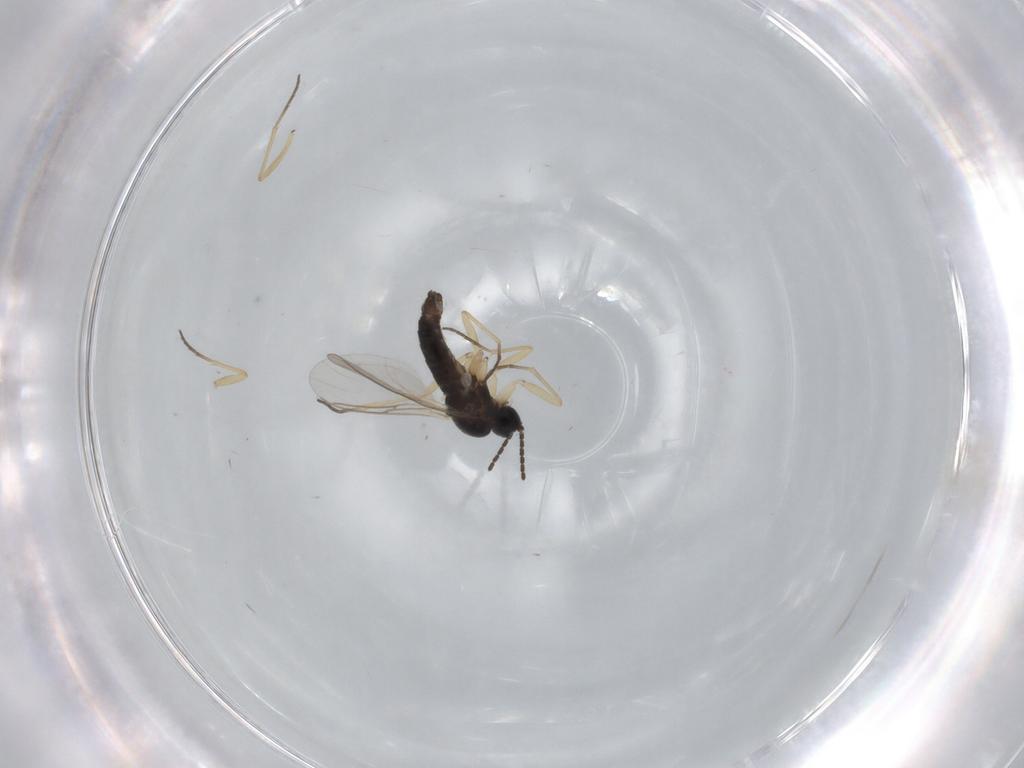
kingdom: Animalia
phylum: Arthropoda
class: Insecta
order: Diptera
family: Sciaridae
